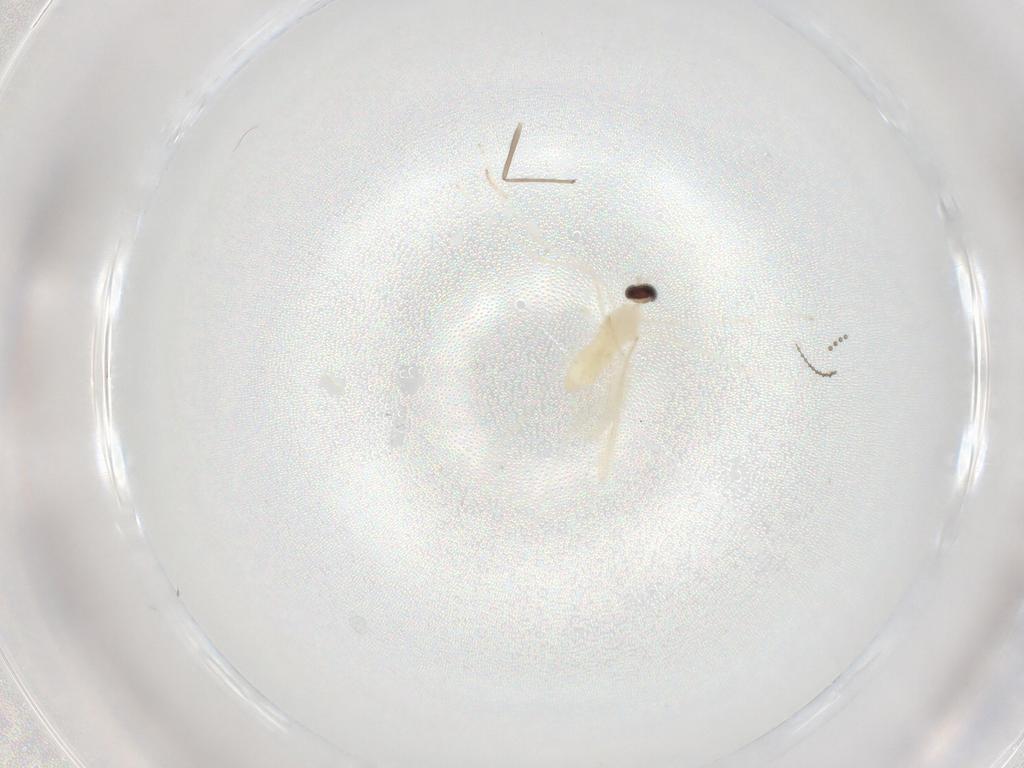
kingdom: Animalia
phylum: Arthropoda
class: Insecta
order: Diptera
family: Cecidomyiidae
